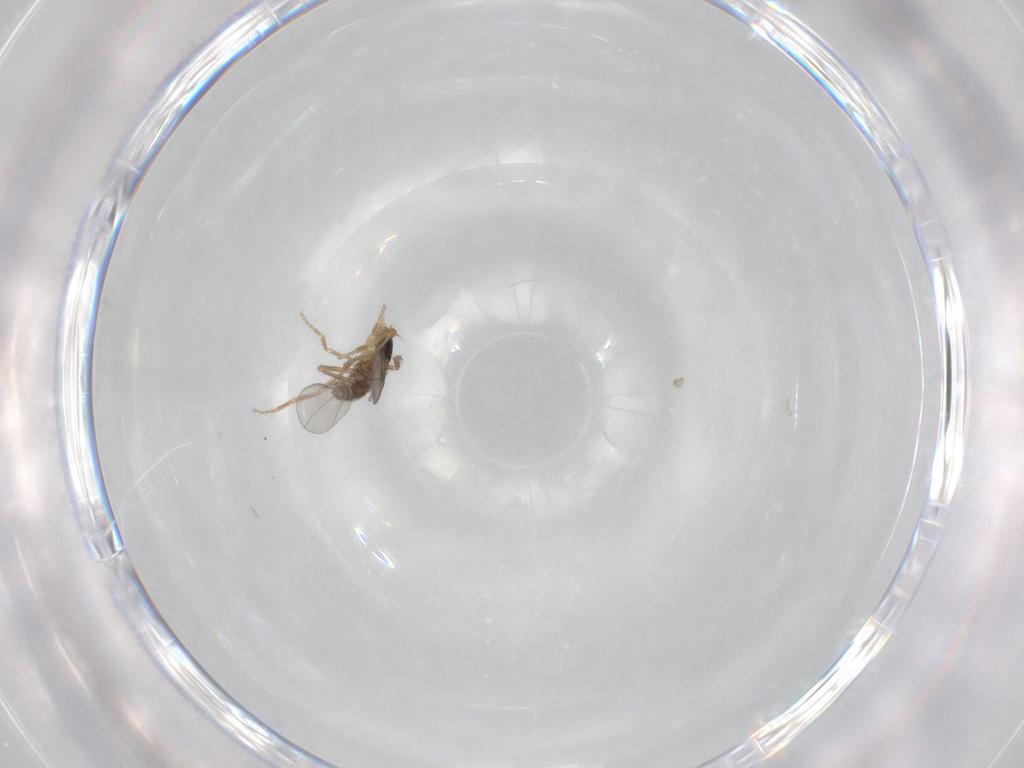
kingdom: Animalia
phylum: Arthropoda
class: Insecta
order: Diptera
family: Phoridae
